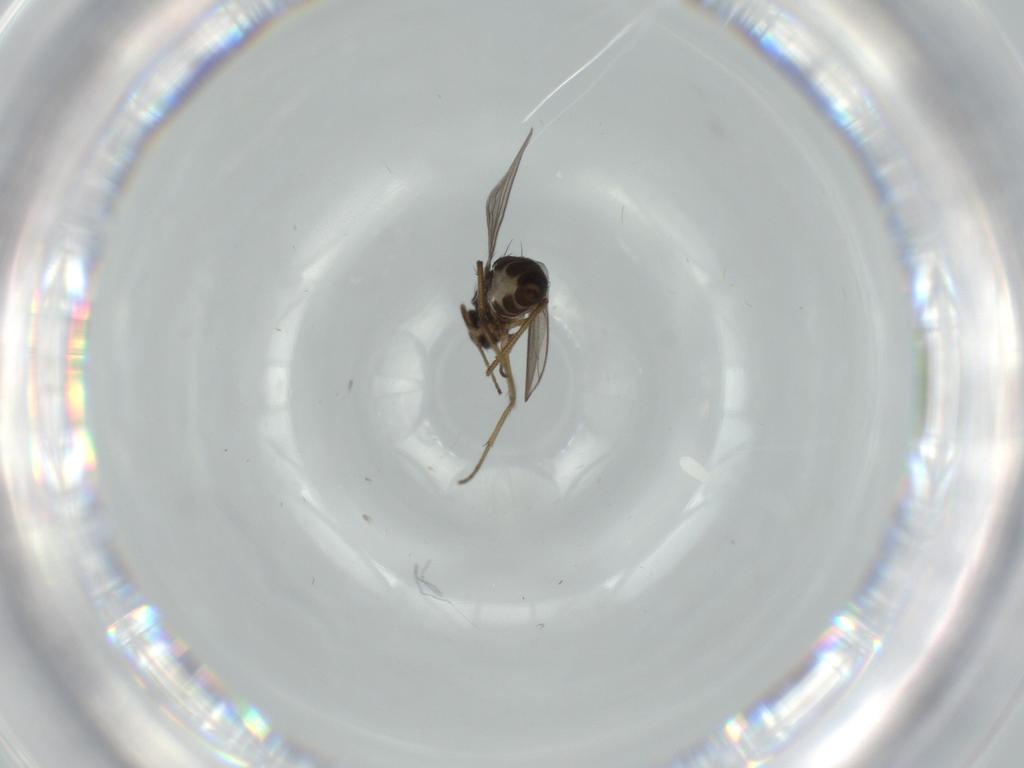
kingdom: Animalia
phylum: Arthropoda
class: Insecta
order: Diptera
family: Dolichopodidae
